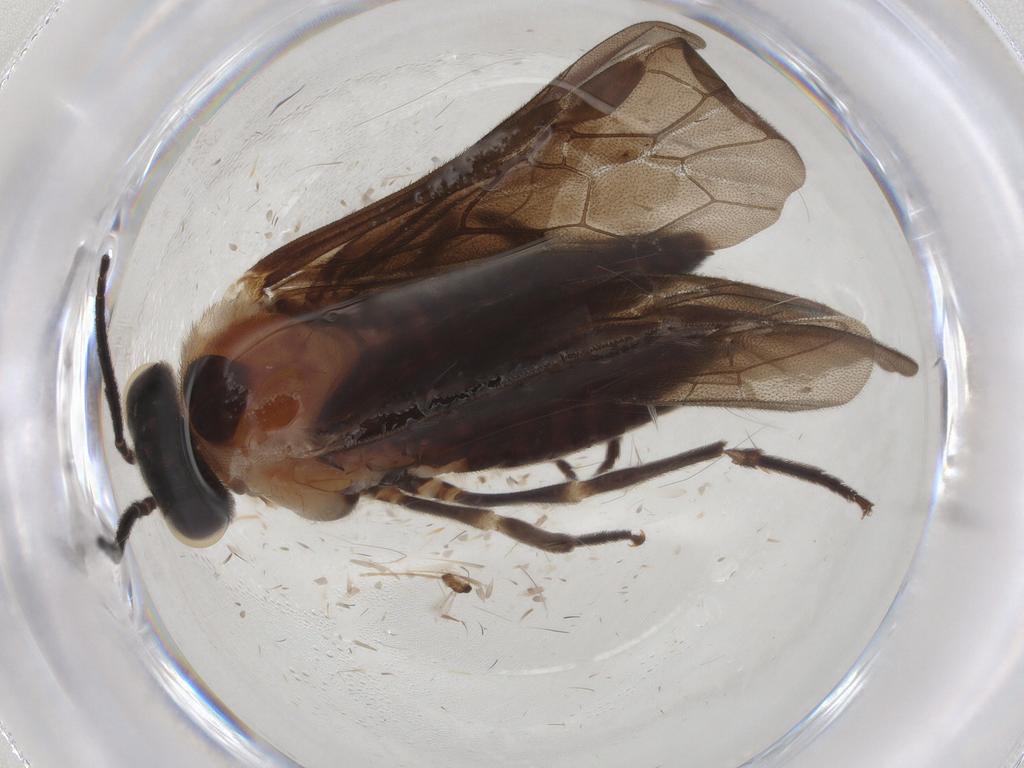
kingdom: Animalia
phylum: Arthropoda
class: Insecta
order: Hymenoptera
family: Tenthredinidae
